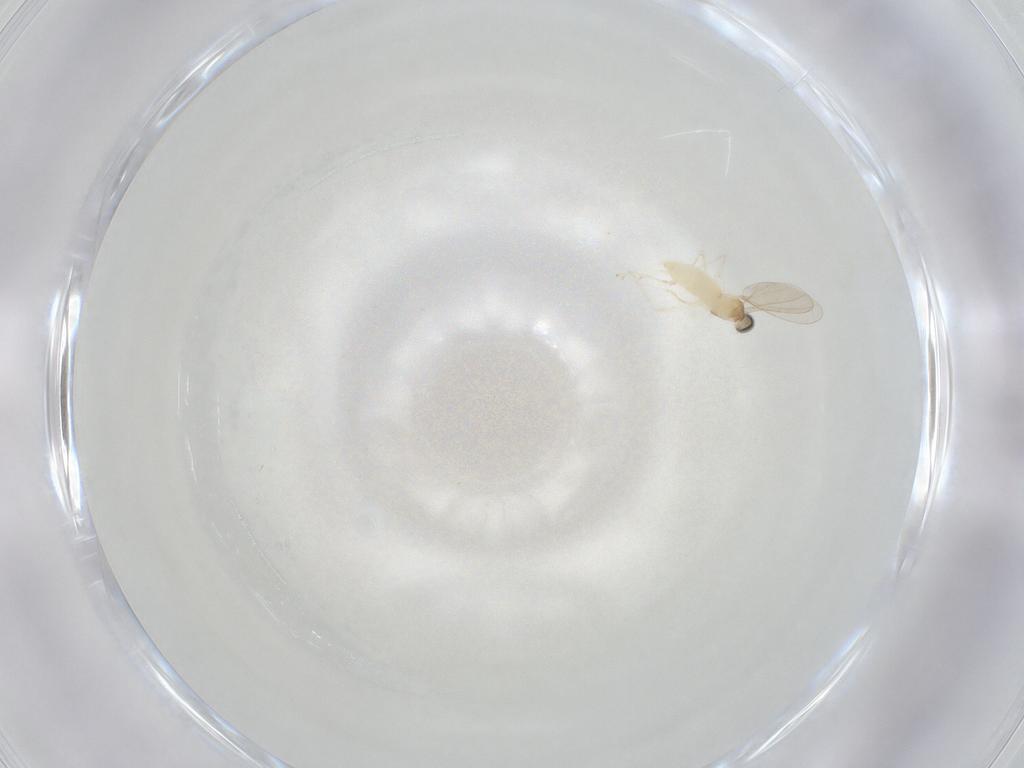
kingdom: Animalia
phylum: Arthropoda
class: Insecta
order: Diptera
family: Cecidomyiidae
